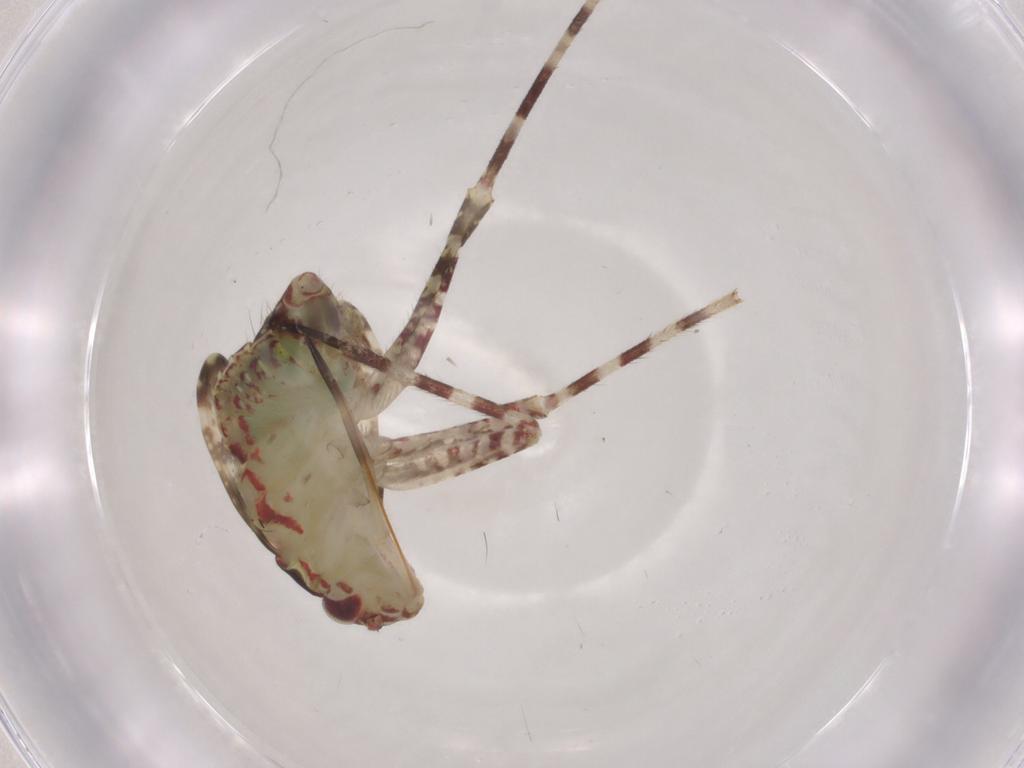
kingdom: Animalia
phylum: Arthropoda
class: Insecta
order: Hemiptera
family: Miridae
